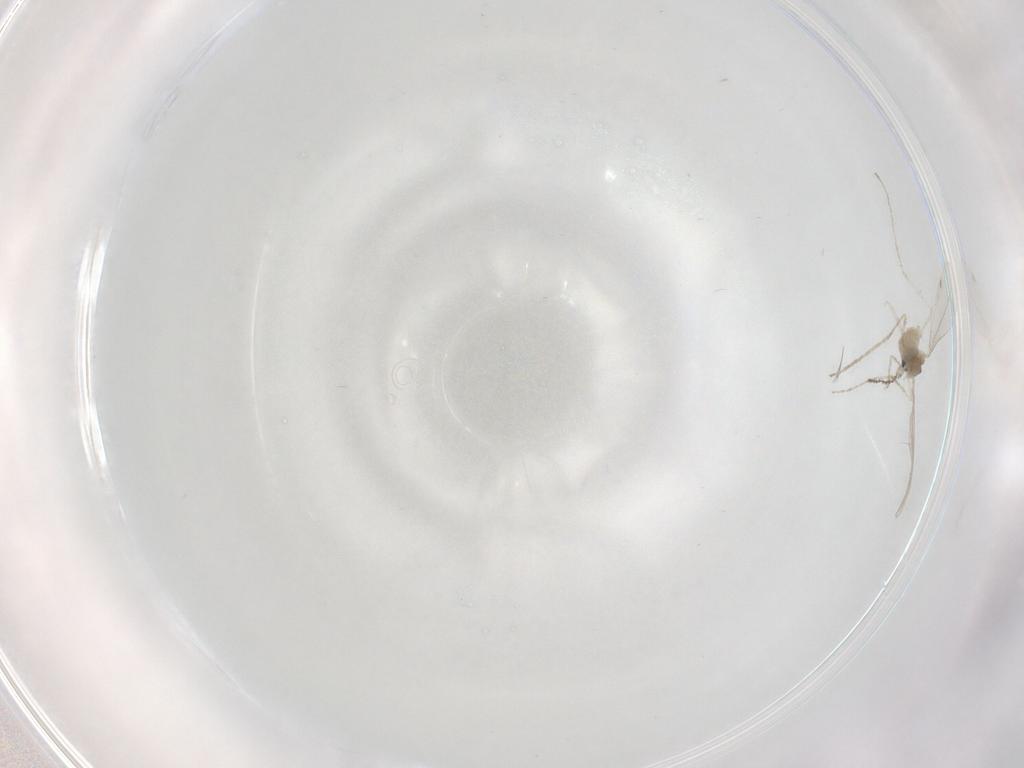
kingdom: Animalia
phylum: Arthropoda
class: Insecta
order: Diptera
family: Cecidomyiidae
